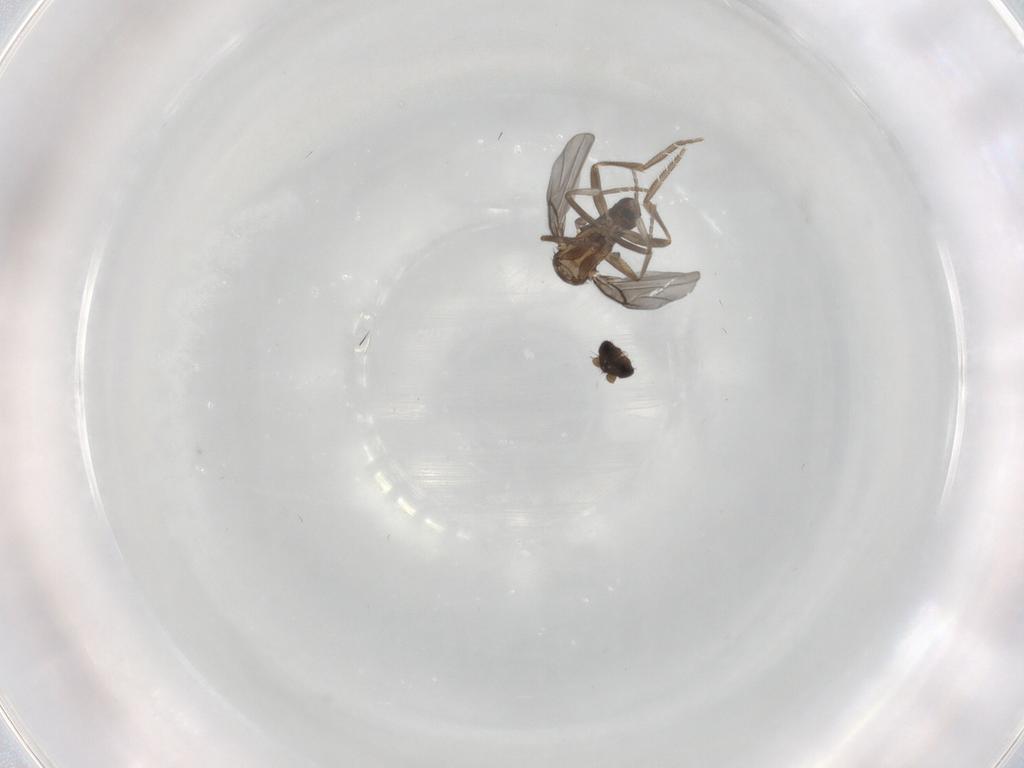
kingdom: Animalia
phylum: Arthropoda
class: Insecta
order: Diptera
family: Phoridae
